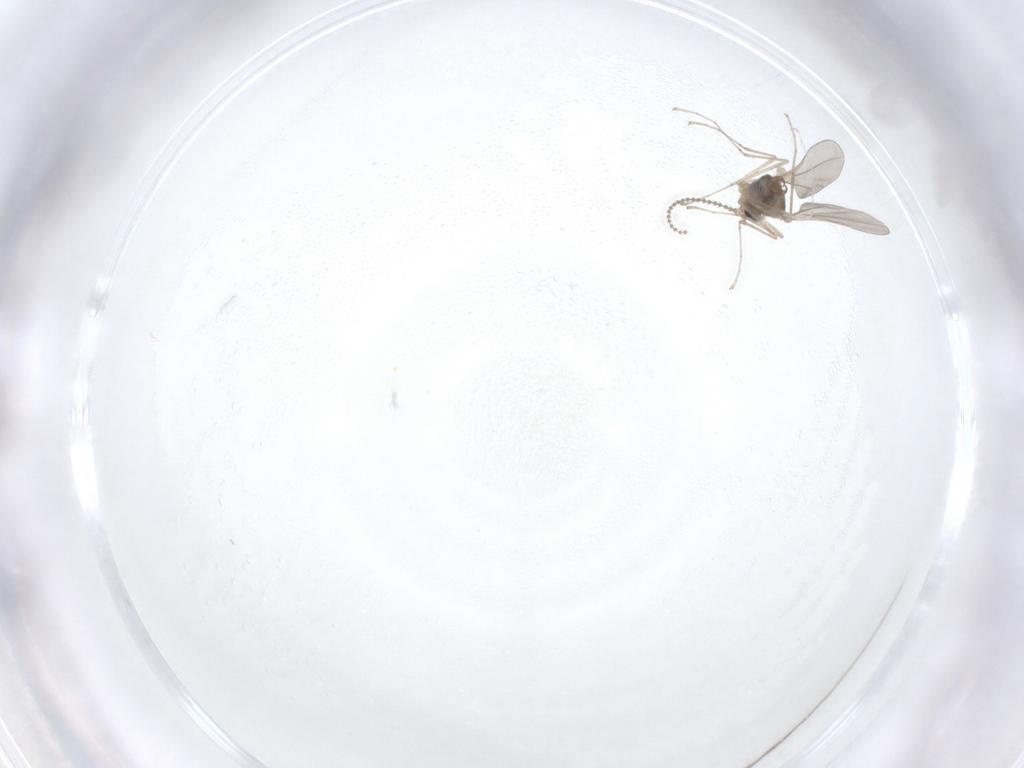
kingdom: Animalia
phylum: Arthropoda
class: Insecta
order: Diptera
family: Cecidomyiidae
